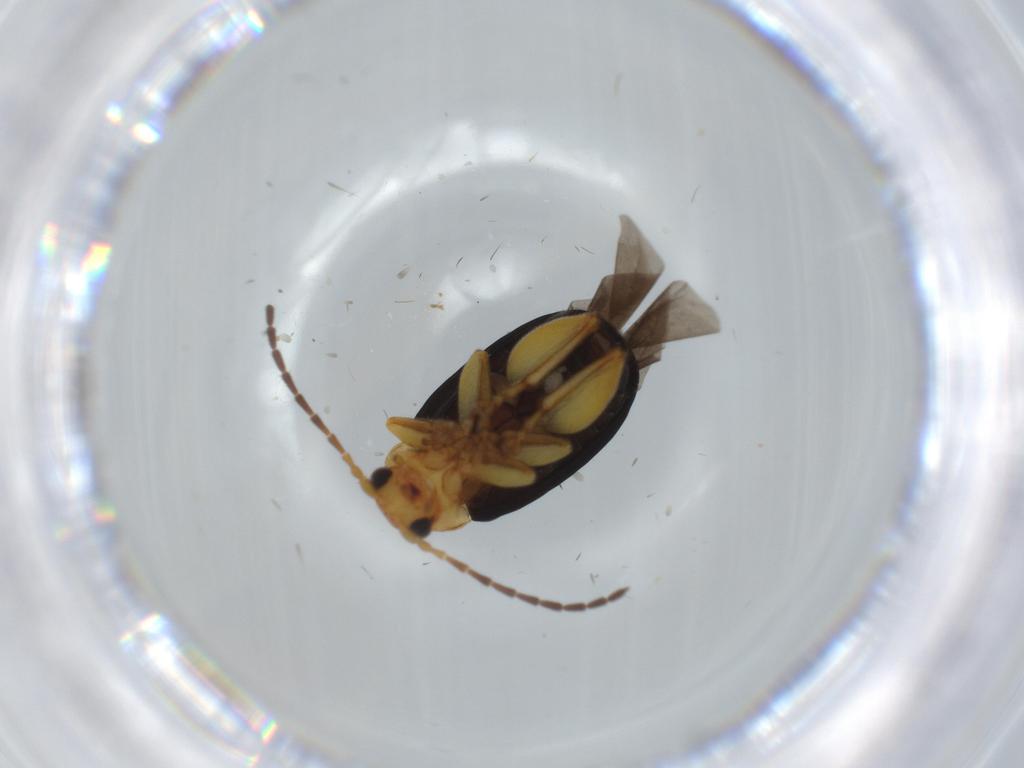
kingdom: Animalia
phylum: Arthropoda
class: Insecta
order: Coleoptera
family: Chrysomelidae
